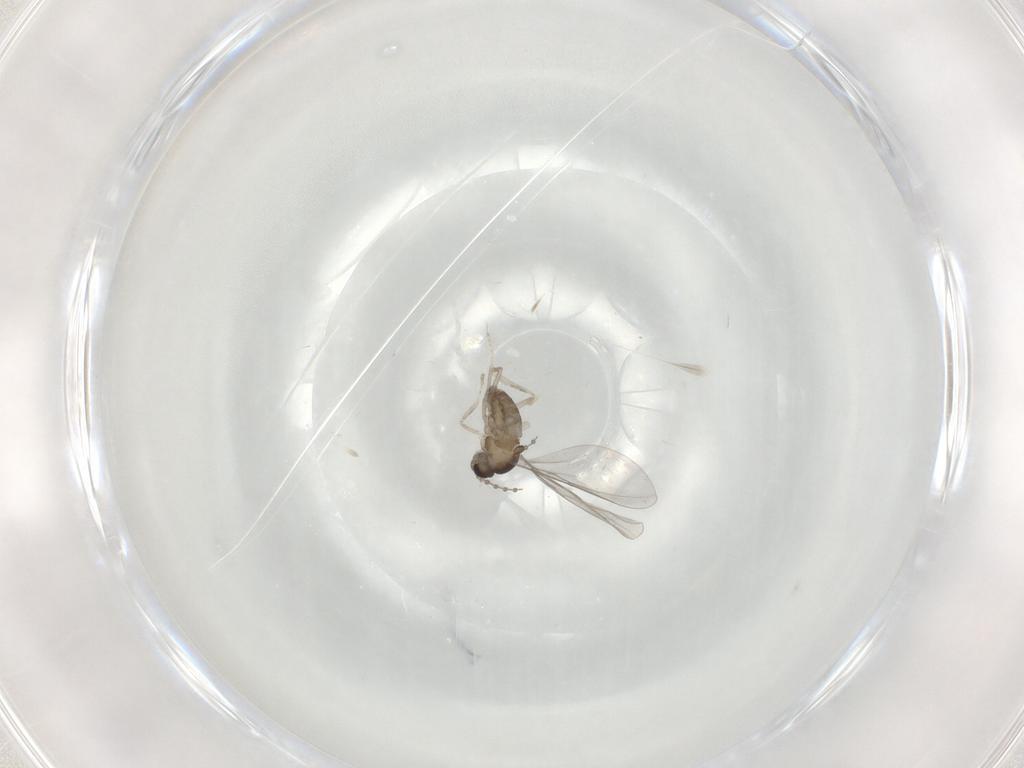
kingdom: Animalia
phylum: Arthropoda
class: Insecta
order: Diptera
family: Cecidomyiidae
